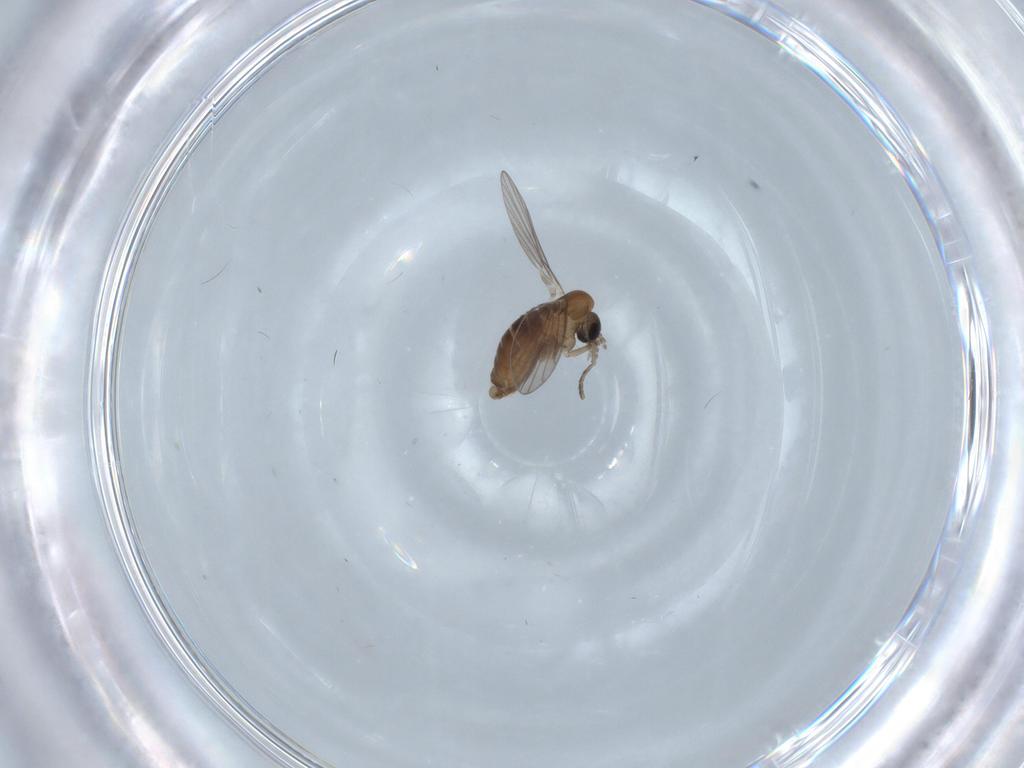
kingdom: Animalia
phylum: Arthropoda
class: Insecta
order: Diptera
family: Psychodidae
